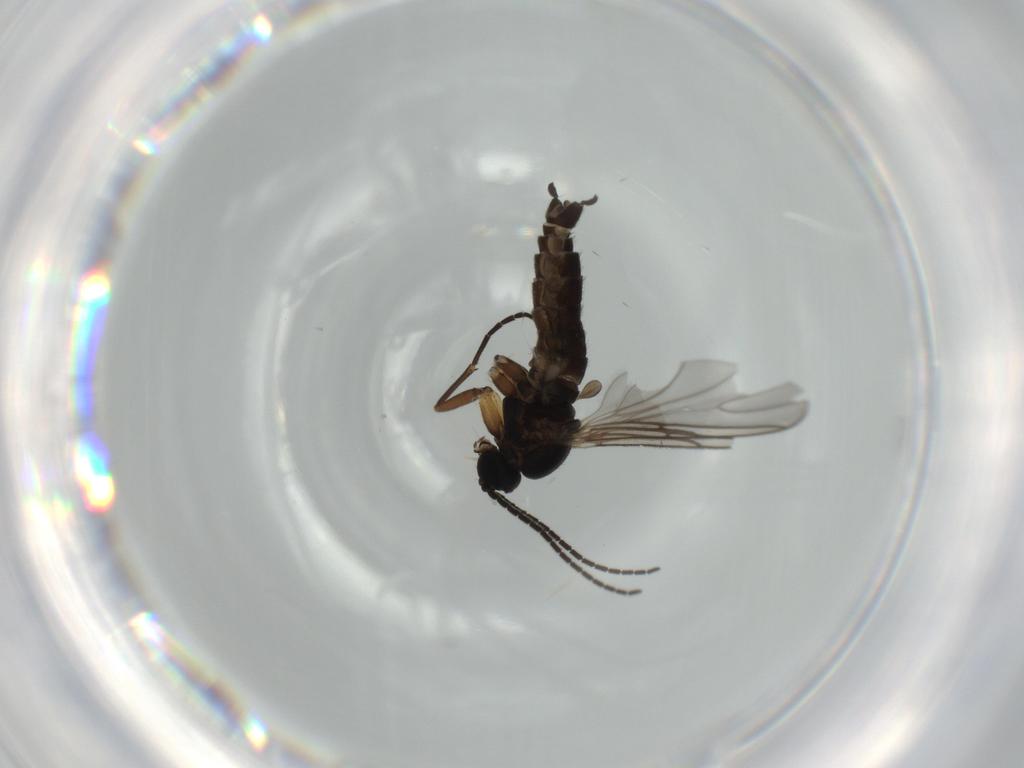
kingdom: Animalia
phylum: Arthropoda
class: Insecta
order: Diptera
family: Sciaridae
